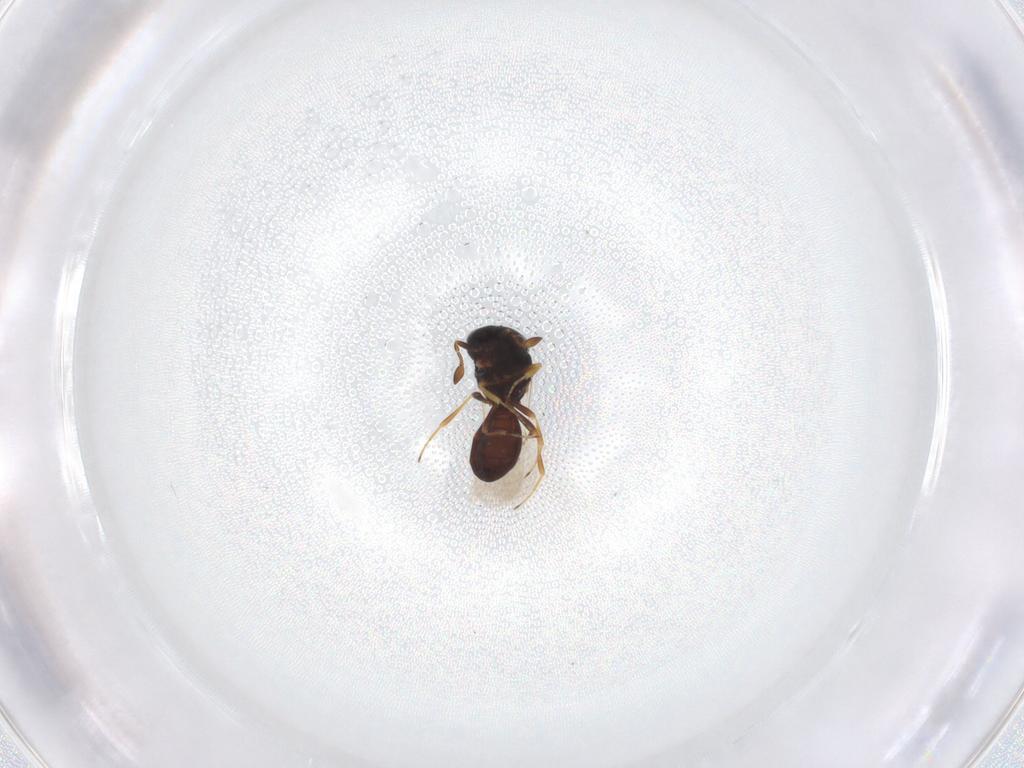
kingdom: Animalia
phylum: Arthropoda
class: Insecta
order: Hymenoptera
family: Scelionidae
